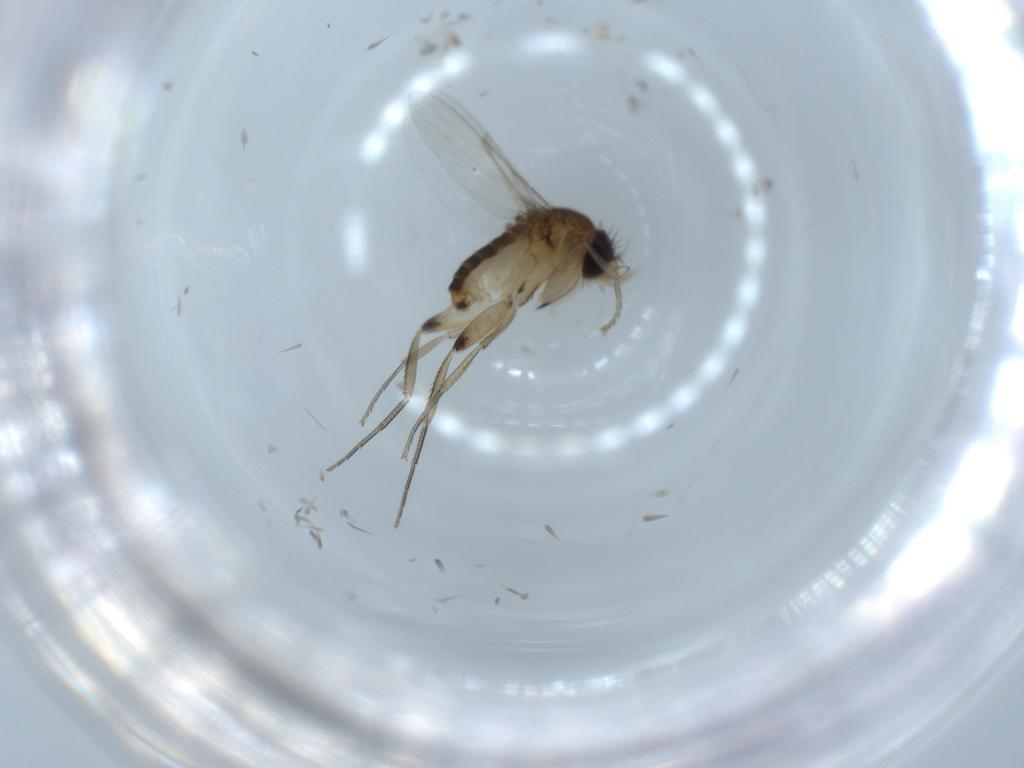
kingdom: Animalia
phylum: Arthropoda
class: Insecta
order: Diptera
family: Phoridae
